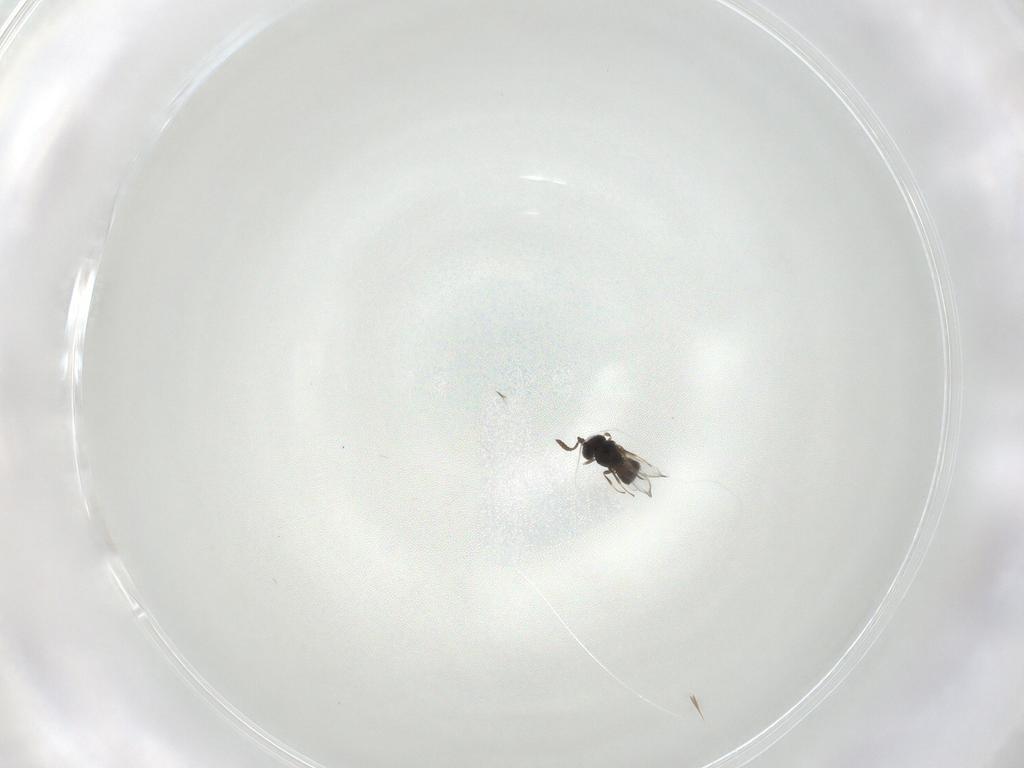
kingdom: Animalia
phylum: Arthropoda
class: Insecta
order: Hymenoptera
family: Scelionidae
